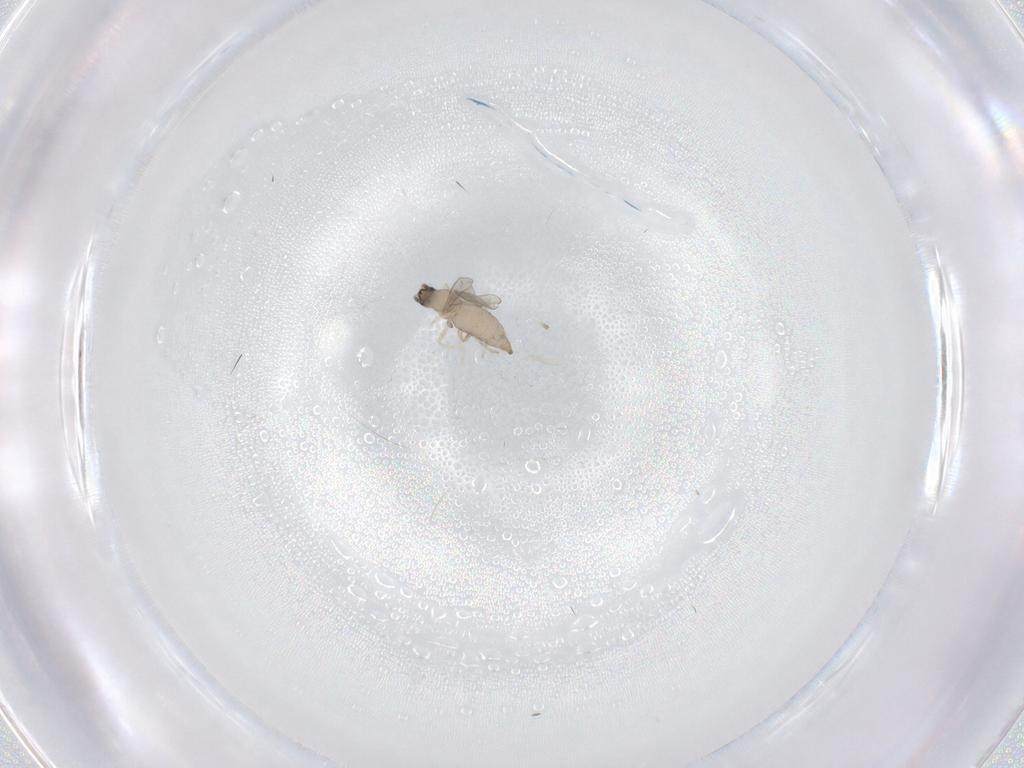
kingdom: Animalia
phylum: Arthropoda
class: Insecta
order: Diptera
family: Cecidomyiidae
